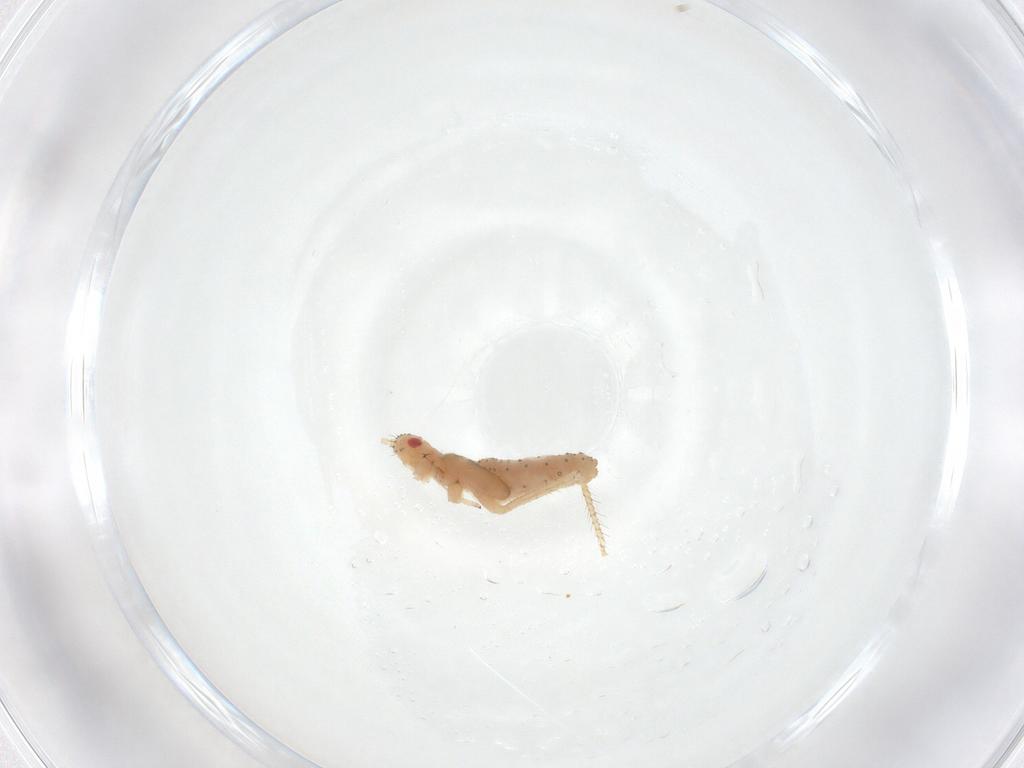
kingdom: Animalia
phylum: Arthropoda
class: Insecta
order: Hemiptera
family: Aphididae
